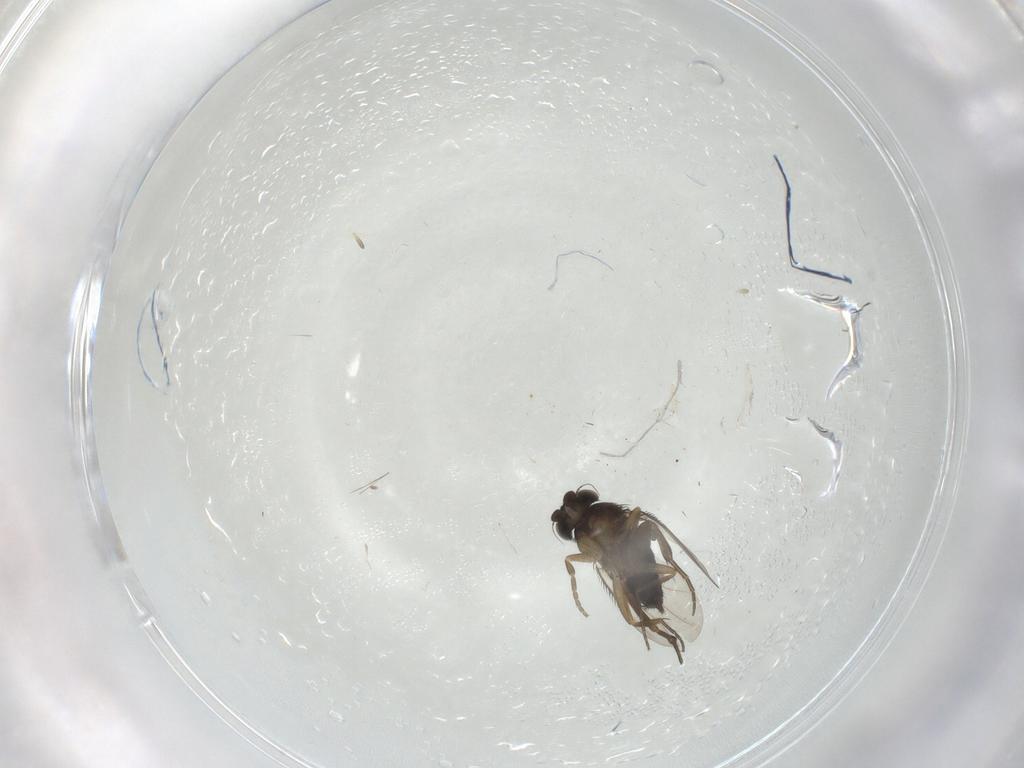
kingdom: Animalia
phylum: Arthropoda
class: Insecta
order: Diptera
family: Phoridae
